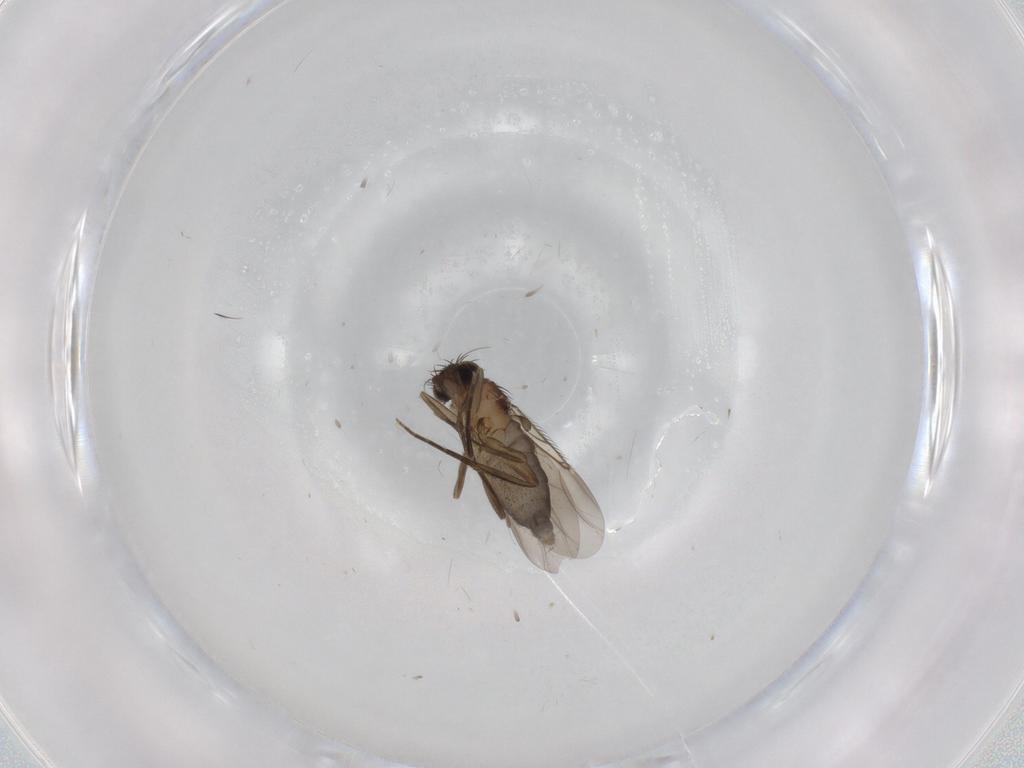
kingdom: Animalia
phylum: Arthropoda
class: Insecta
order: Diptera
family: Phoridae
